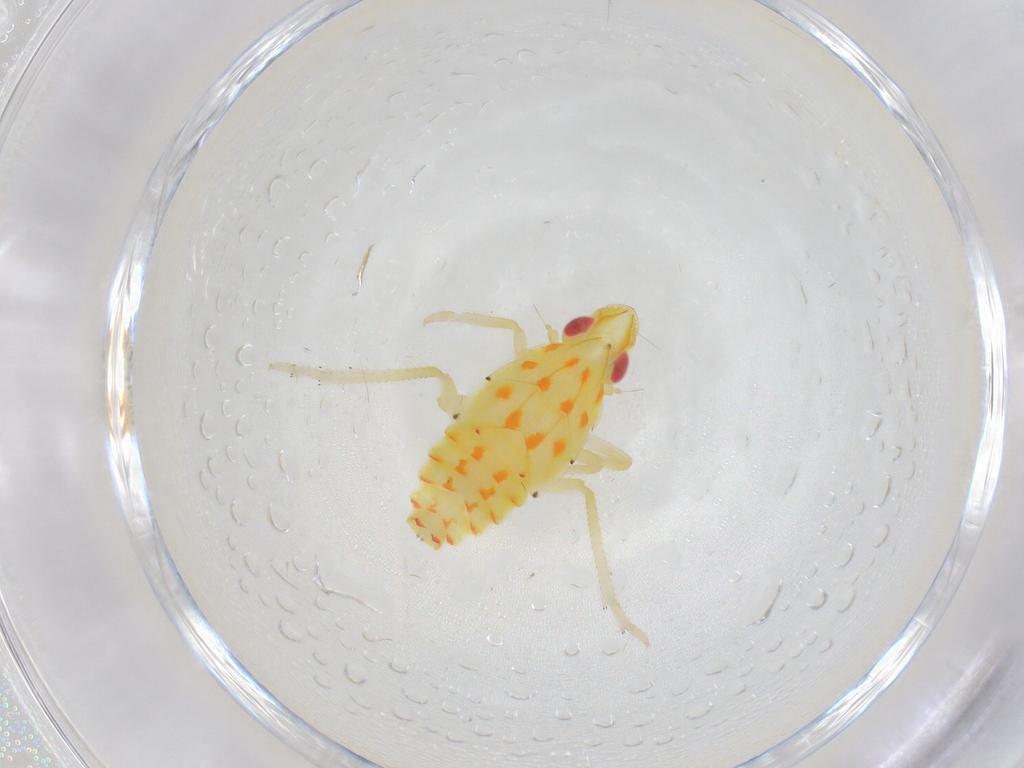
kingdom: Animalia
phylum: Arthropoda
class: Insecta
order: Hemiptera
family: Tropiduchidae
